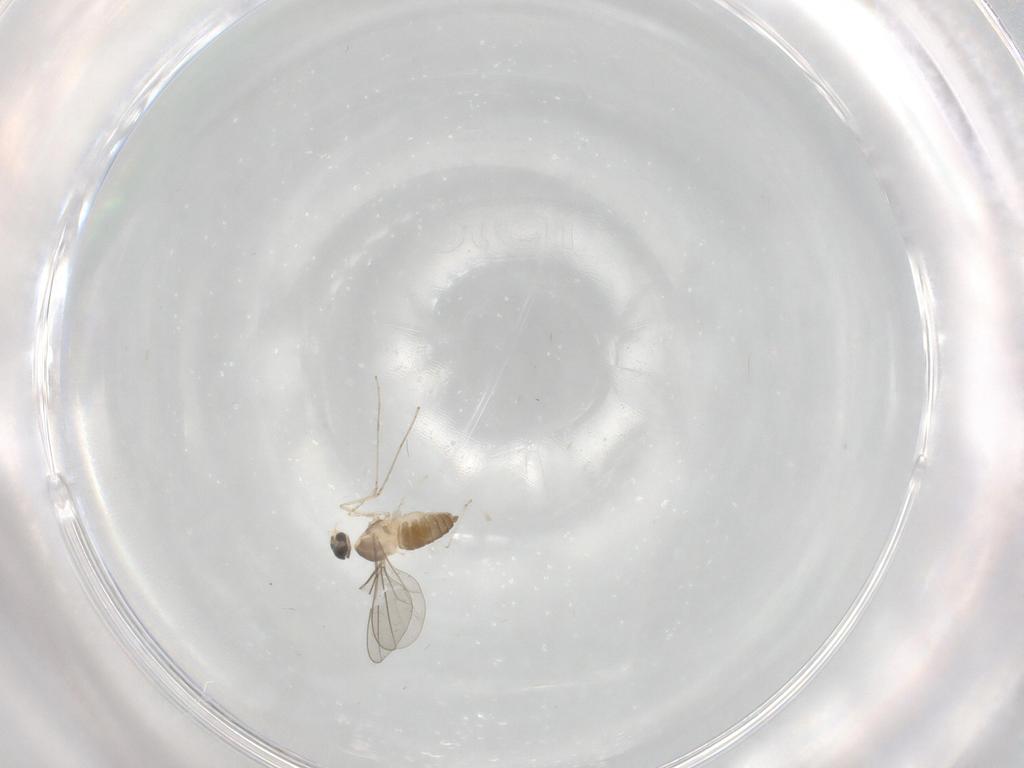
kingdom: Animalia
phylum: Arthropoda
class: Insecta
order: Diptera
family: Cecidomyiidae
